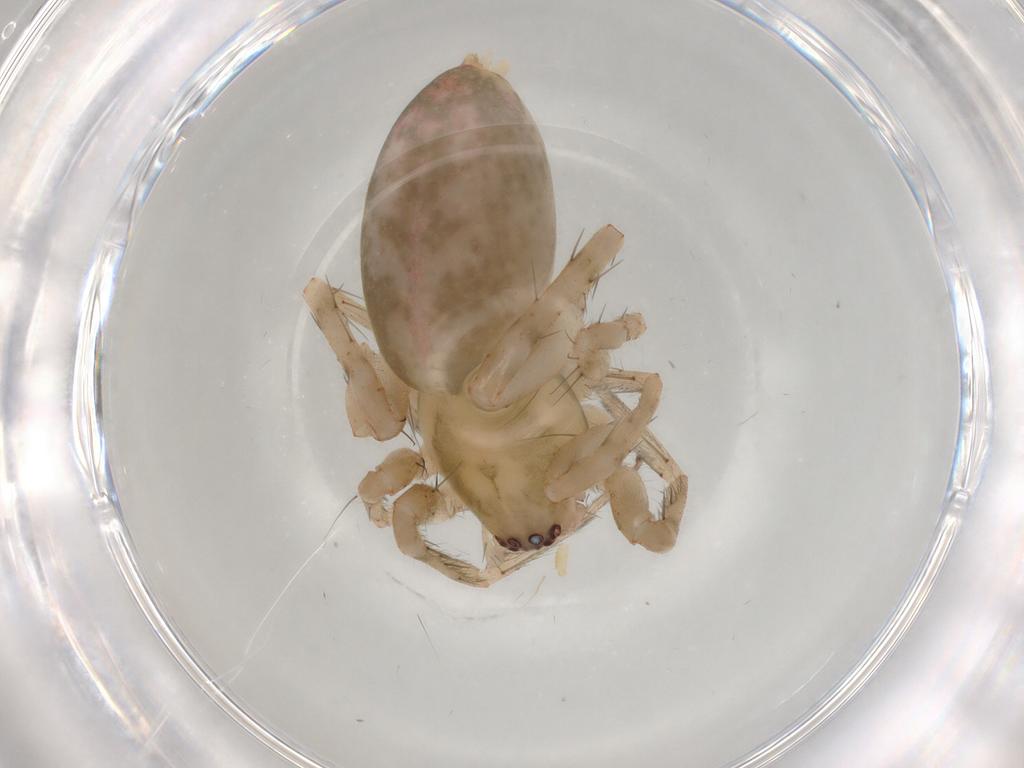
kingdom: Animalia
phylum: Arthropoda
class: Arachnida
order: Araneae
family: Anyphaenidae
